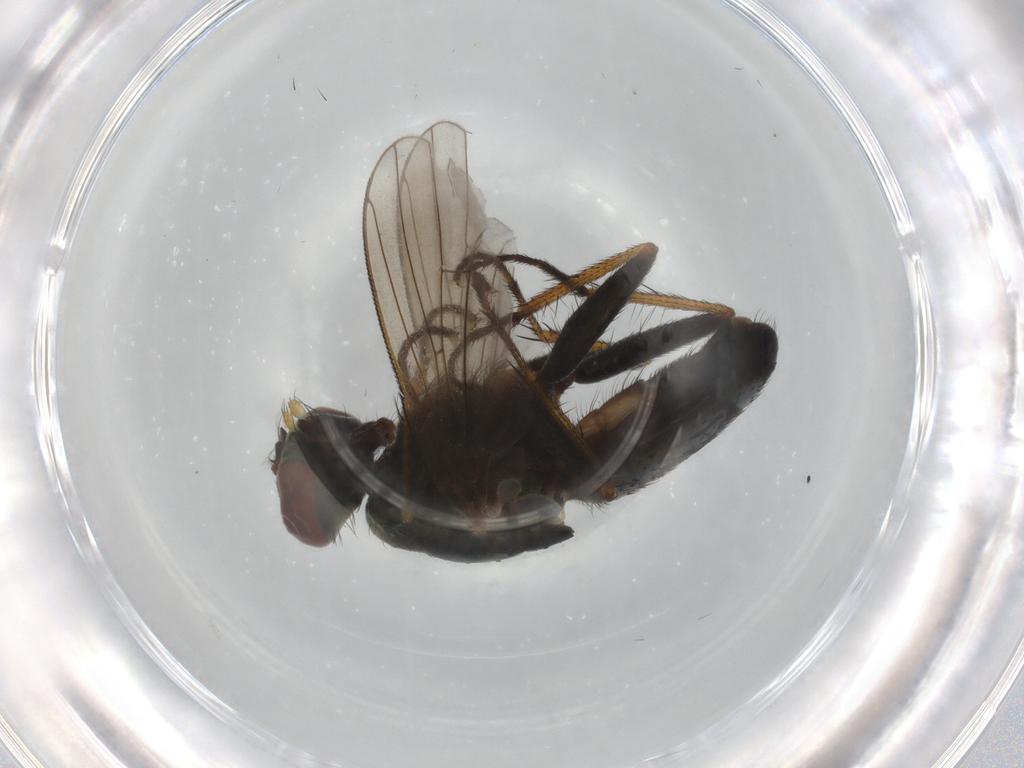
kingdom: Animalia
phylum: Arthropoda
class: Insecta
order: Diptera
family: Muscidae
